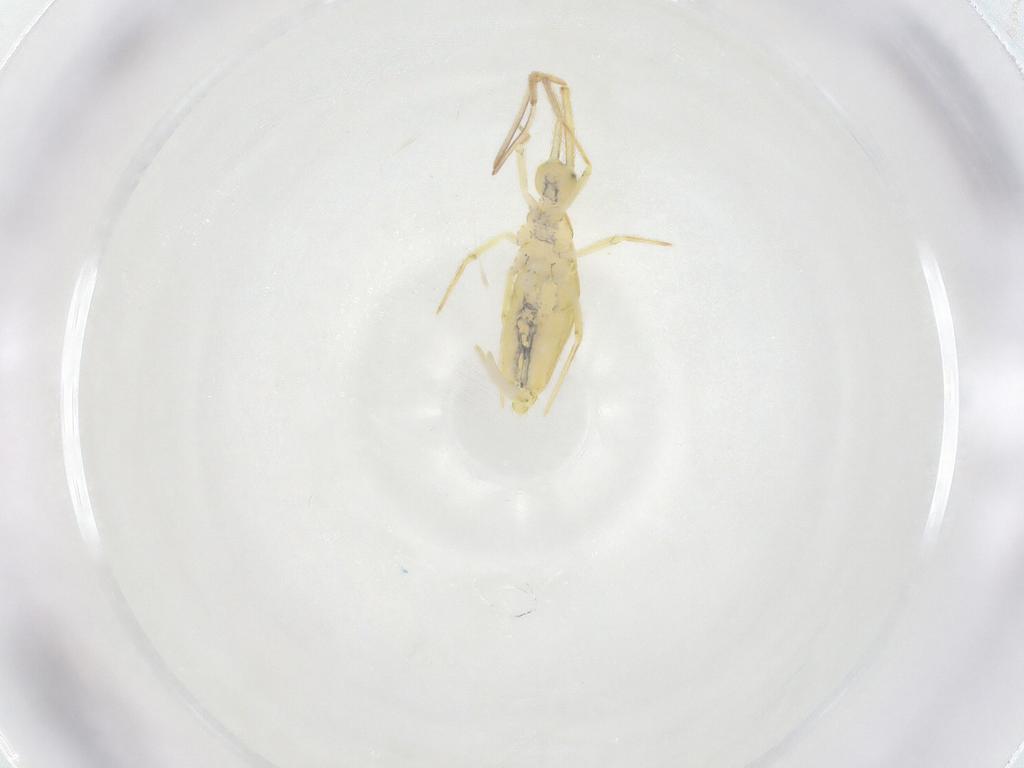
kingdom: Animalia
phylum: Arthropoda
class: Collembola
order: Entomobryomorpha
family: Paronellidae
